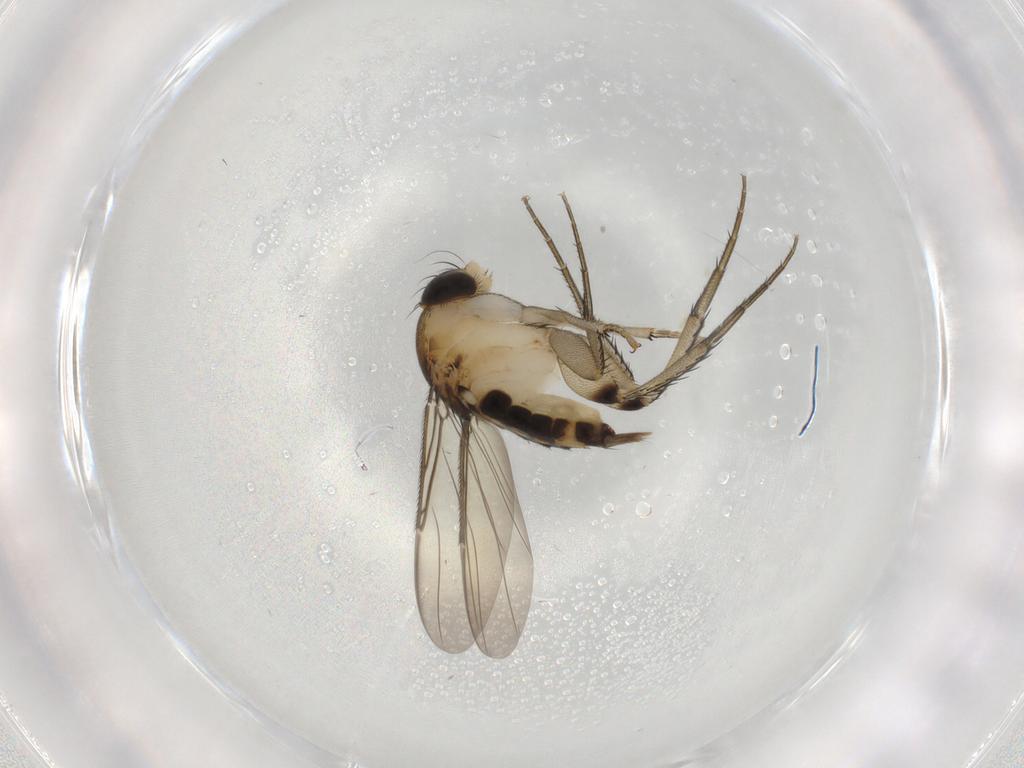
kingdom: Animalia
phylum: Arthropoda
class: Insecta
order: Diptera
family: Phoridae
